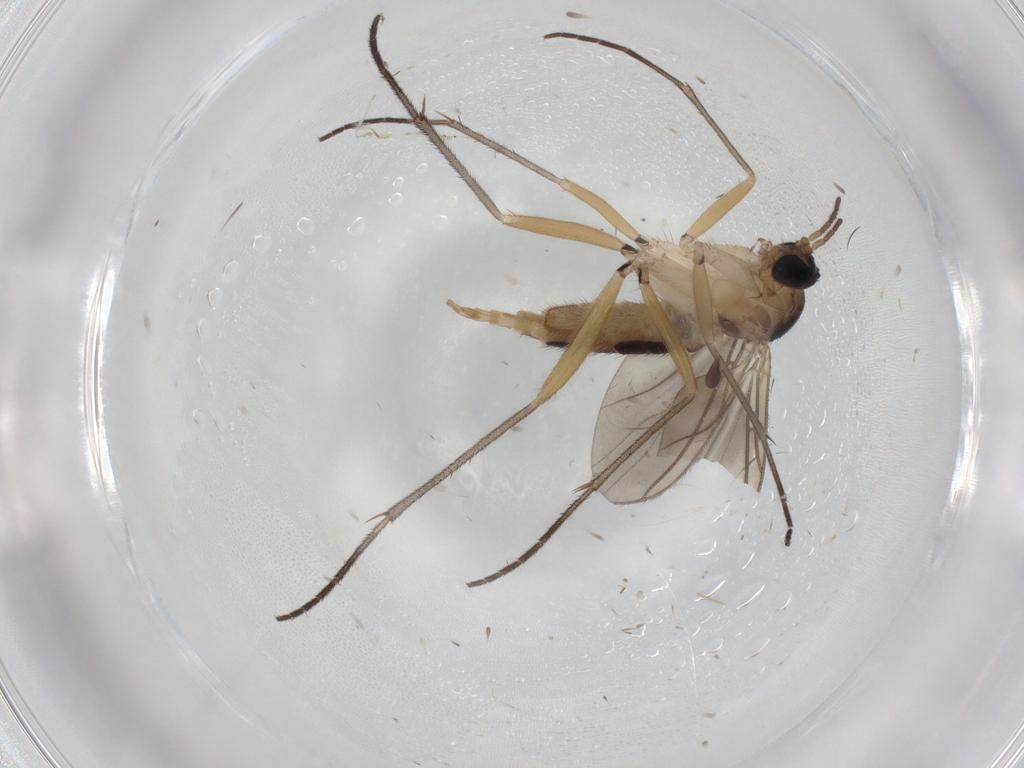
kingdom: Animalia
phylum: Arthropoda
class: Insecta
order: Diptera
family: Sciaridae
